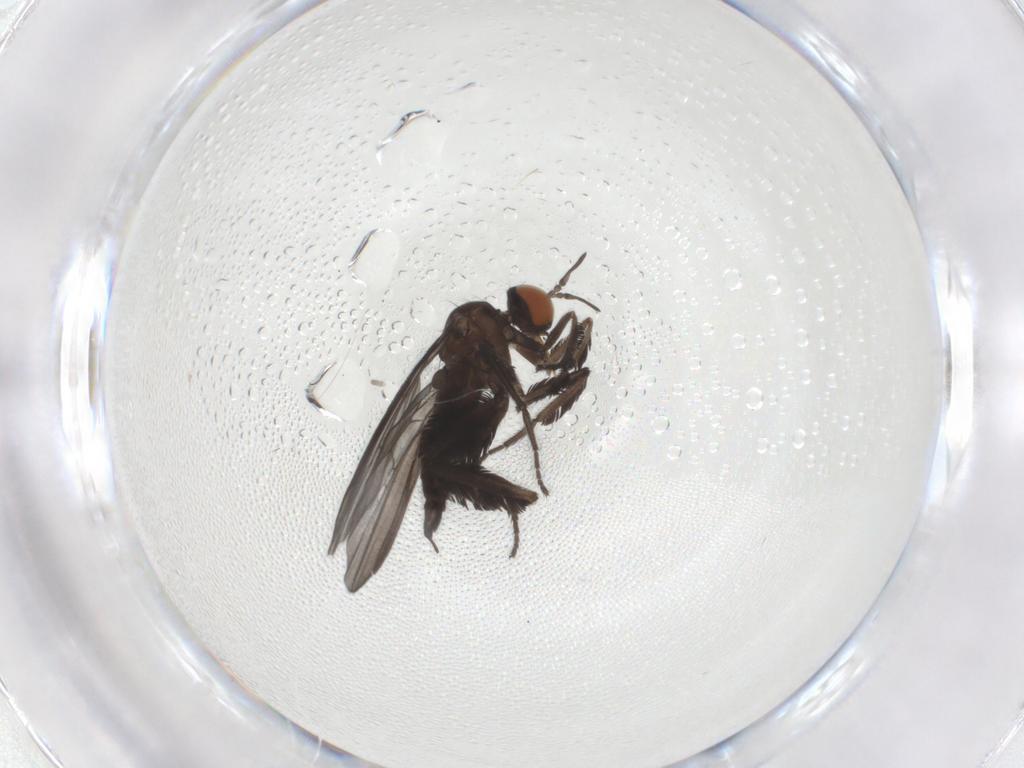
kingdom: Animalia
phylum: Arthropoda
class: Insecta
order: Diptera
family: Empididae
